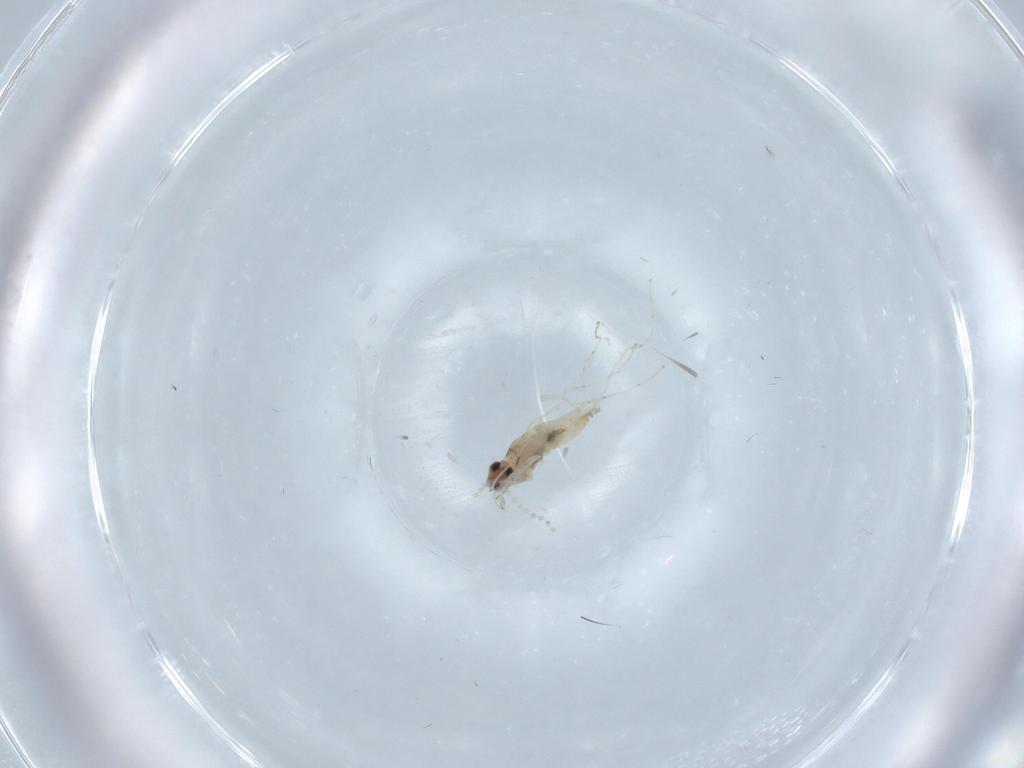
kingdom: Animalia
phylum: Arthropoda
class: Insecta
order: Diptera
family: Cecidomyiidae
